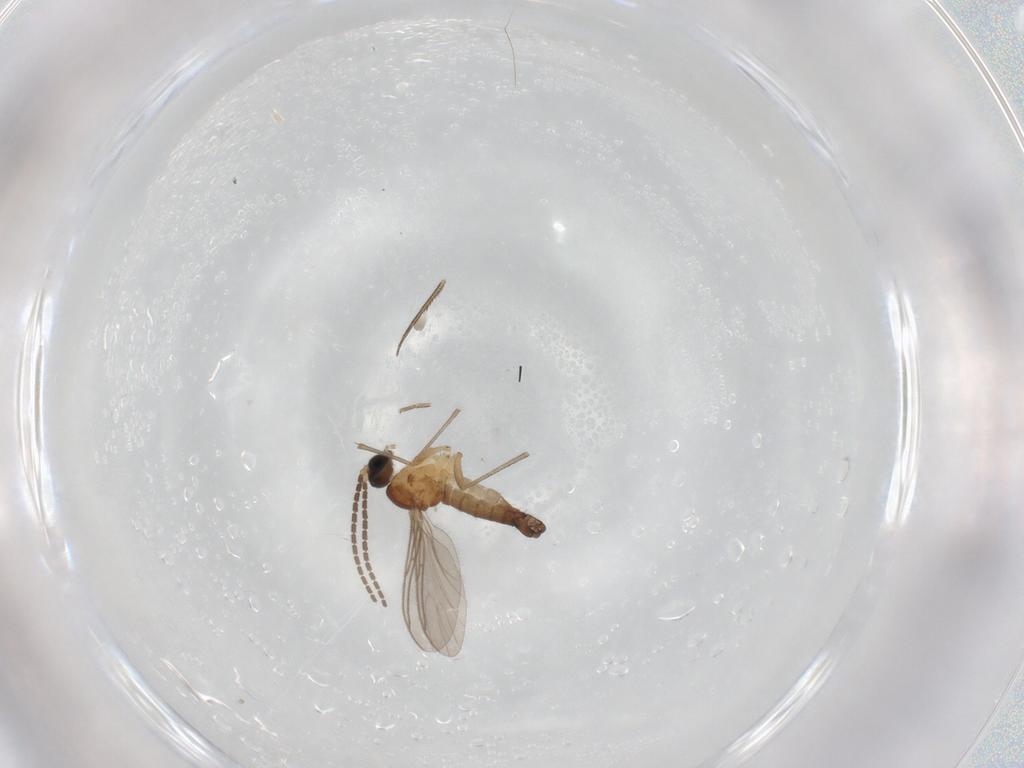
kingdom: Animalia
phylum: Arthropoda
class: Insecta
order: Diptera
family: Sciaridae
